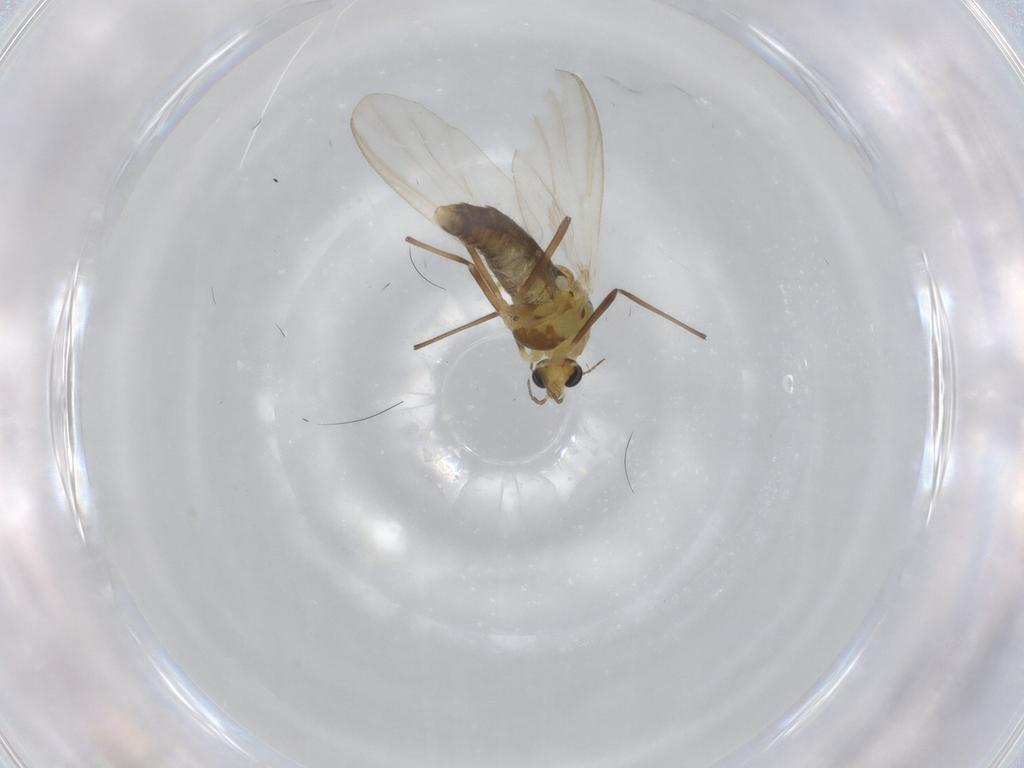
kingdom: Animalia
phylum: Arthropoda
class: Insecta
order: Diptera
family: Chironomidae
